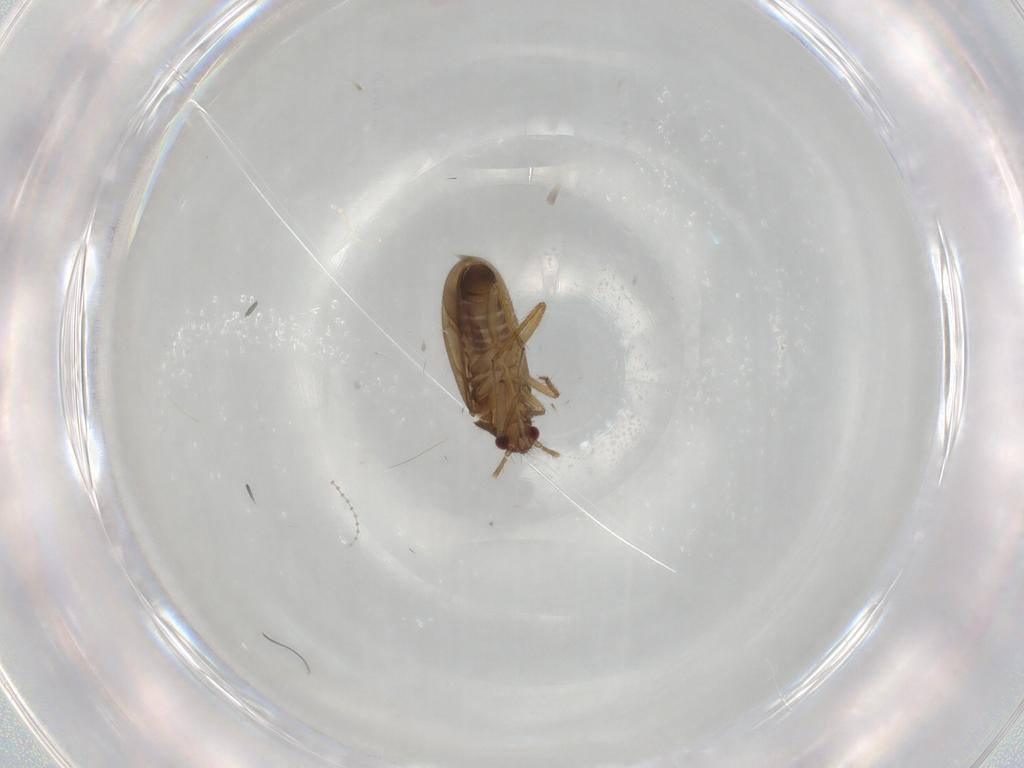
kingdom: Animalia
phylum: Arthropoda
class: Insecta
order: Hemiptera
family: Ceratocombidae
